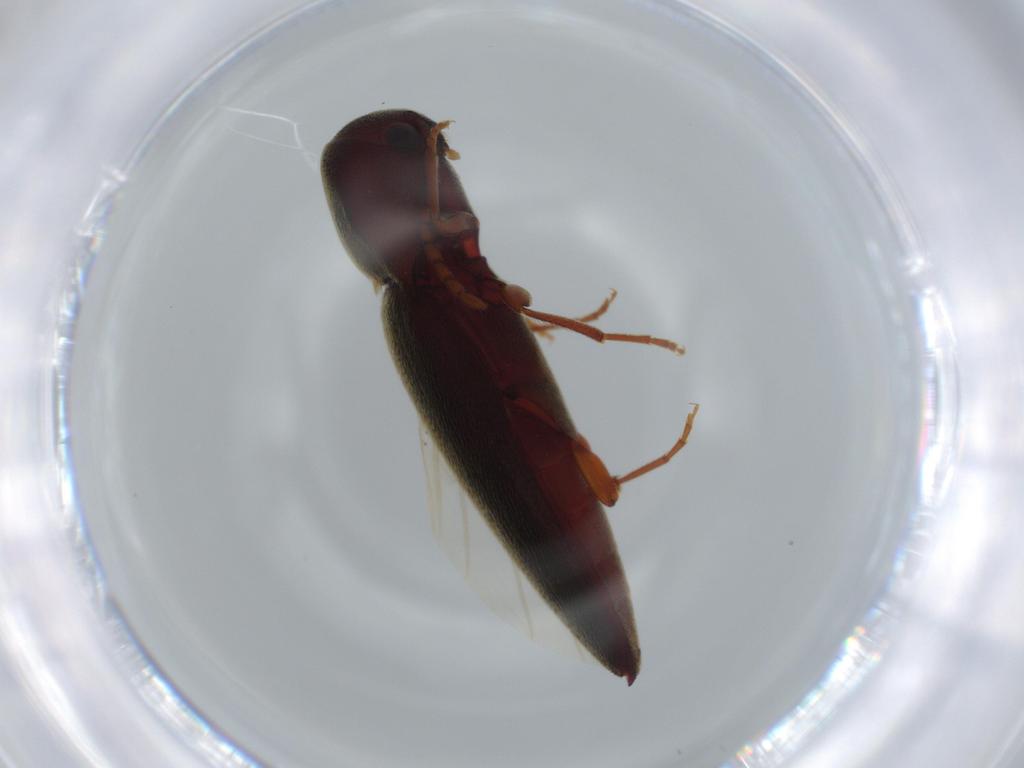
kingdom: Animalia
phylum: Arthropoda
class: Insecta
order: Coleoptera
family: Eucnemidae
